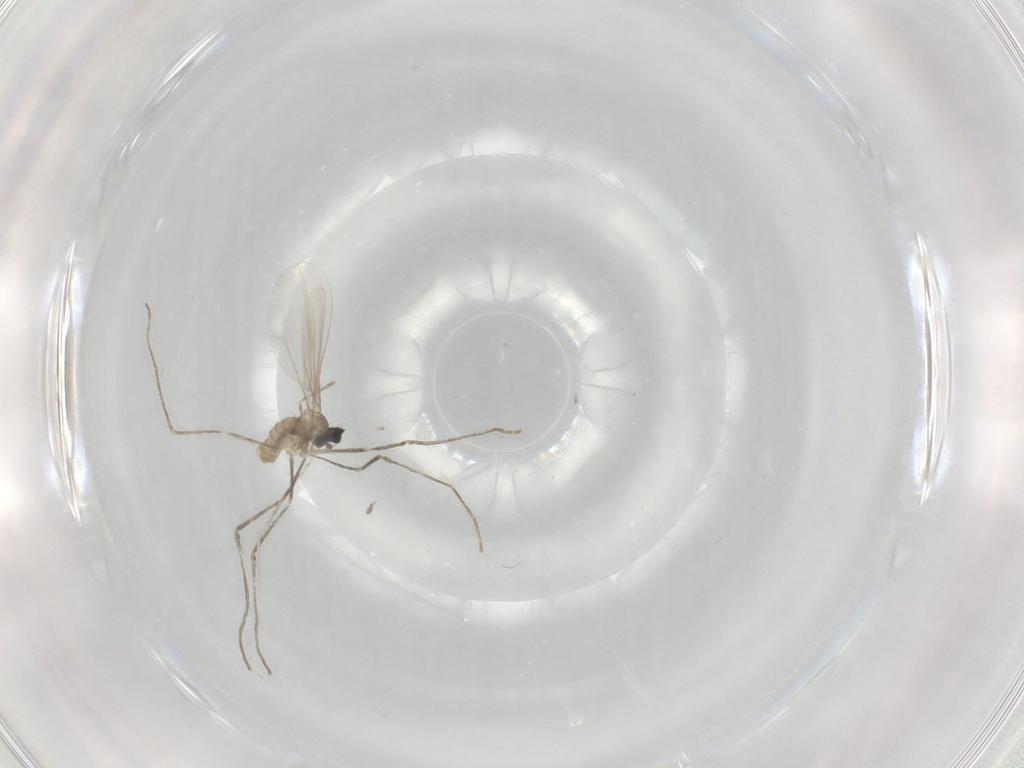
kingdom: Animalia
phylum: Arthropoda
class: Insecta
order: Diptera
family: Cecidomyiidae
